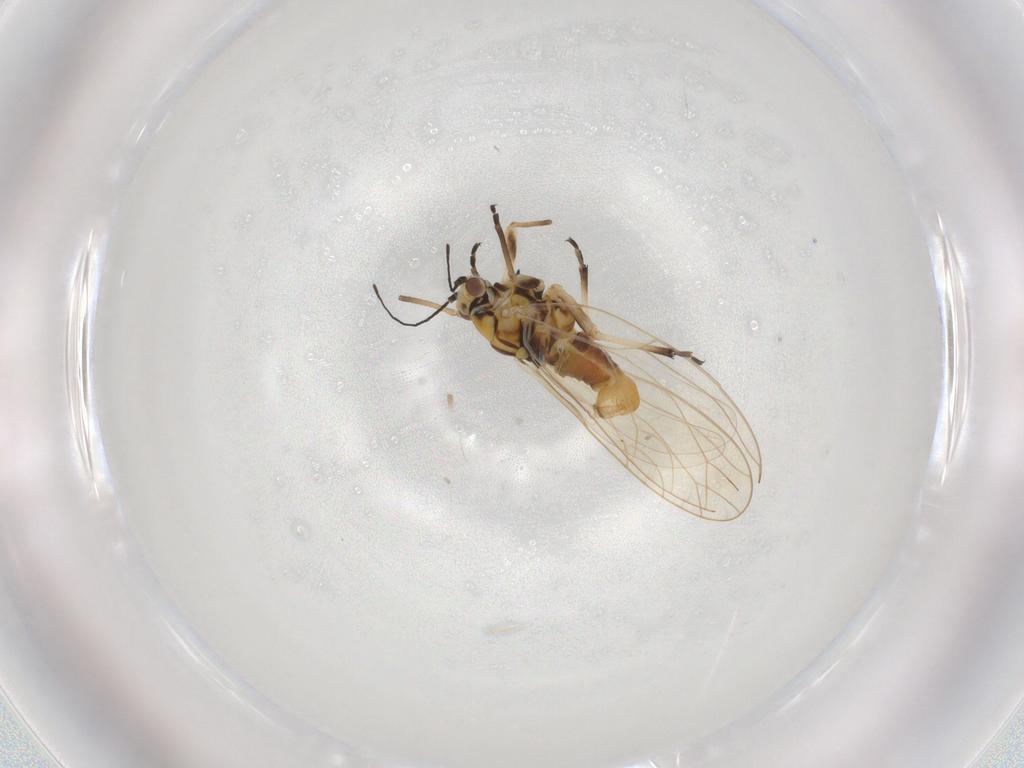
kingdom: Animalia
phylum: Arthropoda
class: Insecta
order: Hemiptera
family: Triozidae
